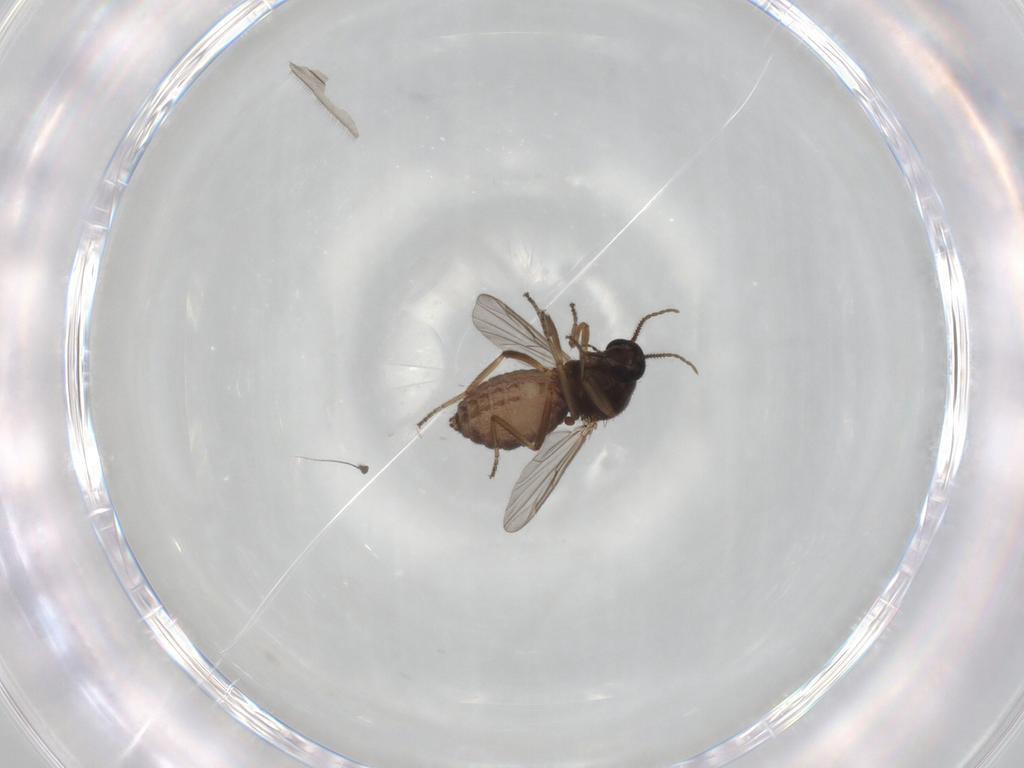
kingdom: Animalia
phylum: Arthropoda
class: Insecta
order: Diptera
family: Ceratopogonidae
